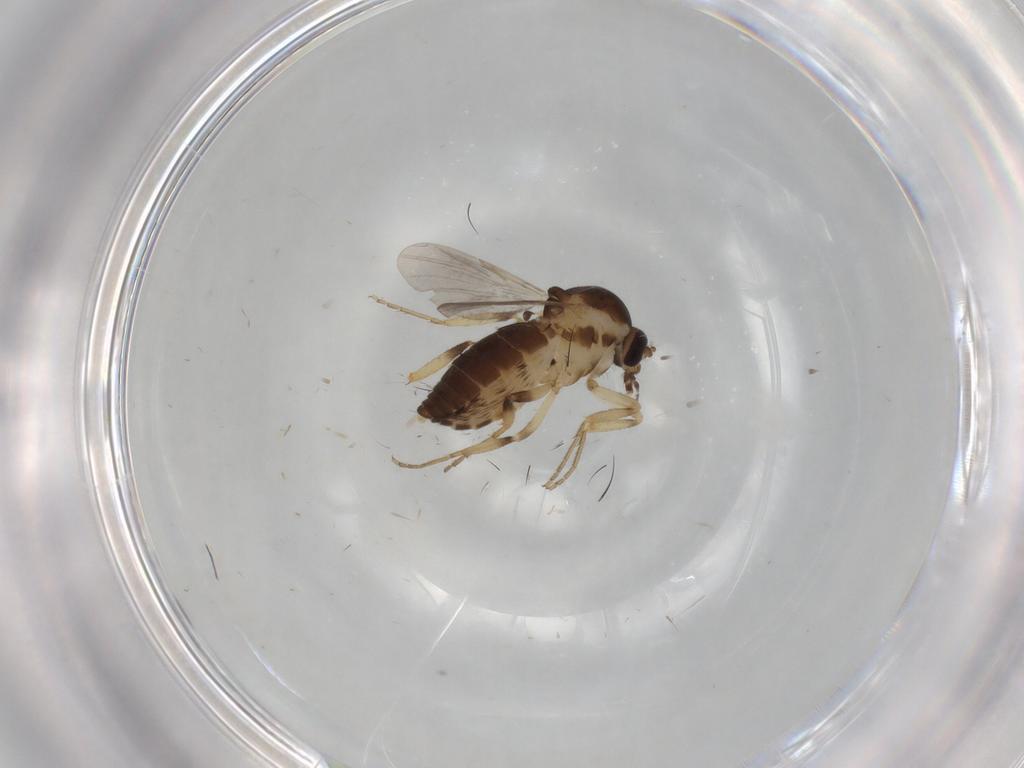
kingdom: Animalia
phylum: Arthropoda
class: Insecta
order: Diptera
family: Ceratopogonidae
